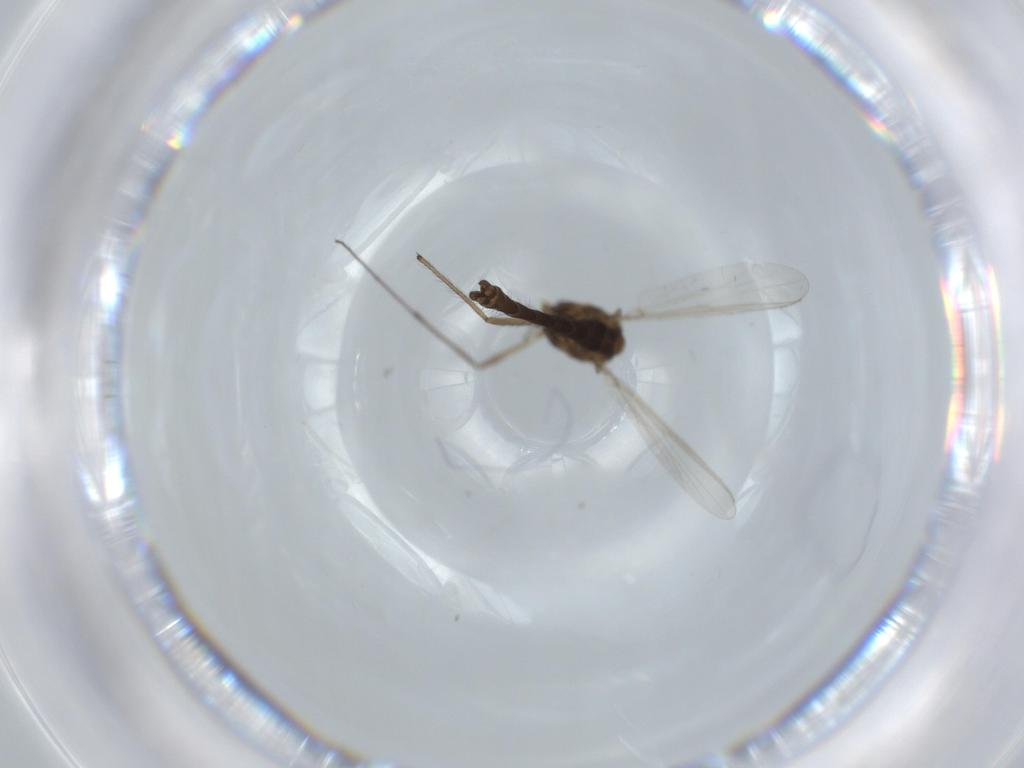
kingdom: Animalia
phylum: Arthropoda
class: Insecta
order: Diptera
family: Chironomidae
